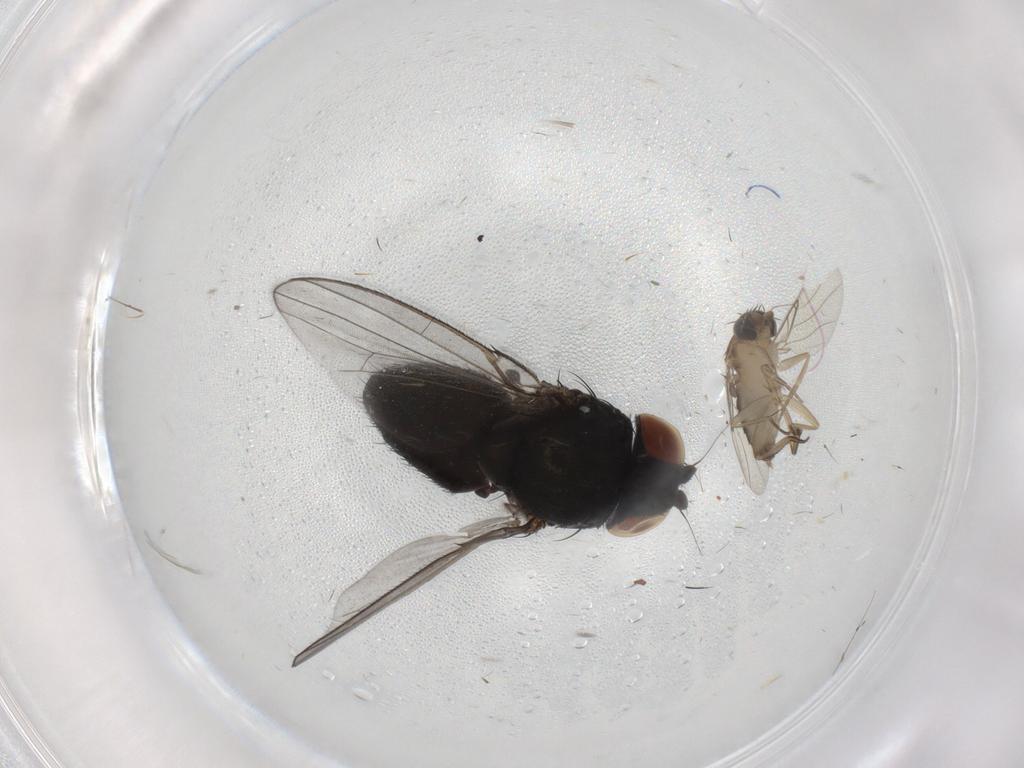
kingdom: Animalia
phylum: Arthropoda
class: Insecta
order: Diptera
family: Milichiidae
